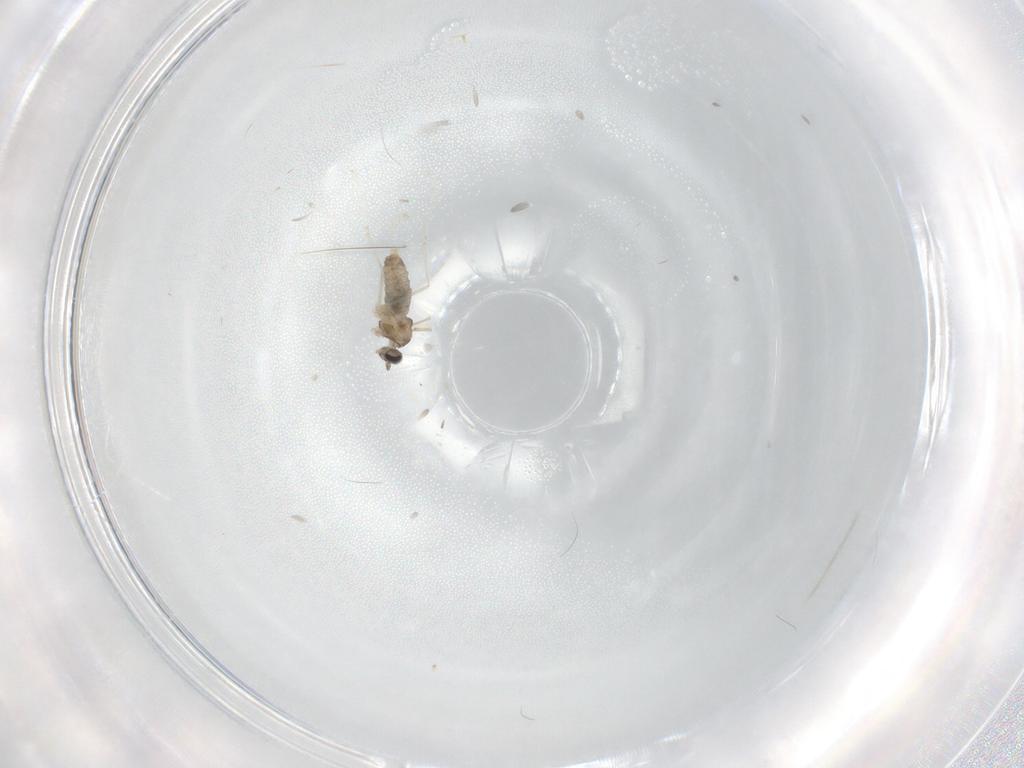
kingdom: Animalia
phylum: Arthropoda
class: Insecta
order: Diptera
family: Cecidomyiidae
